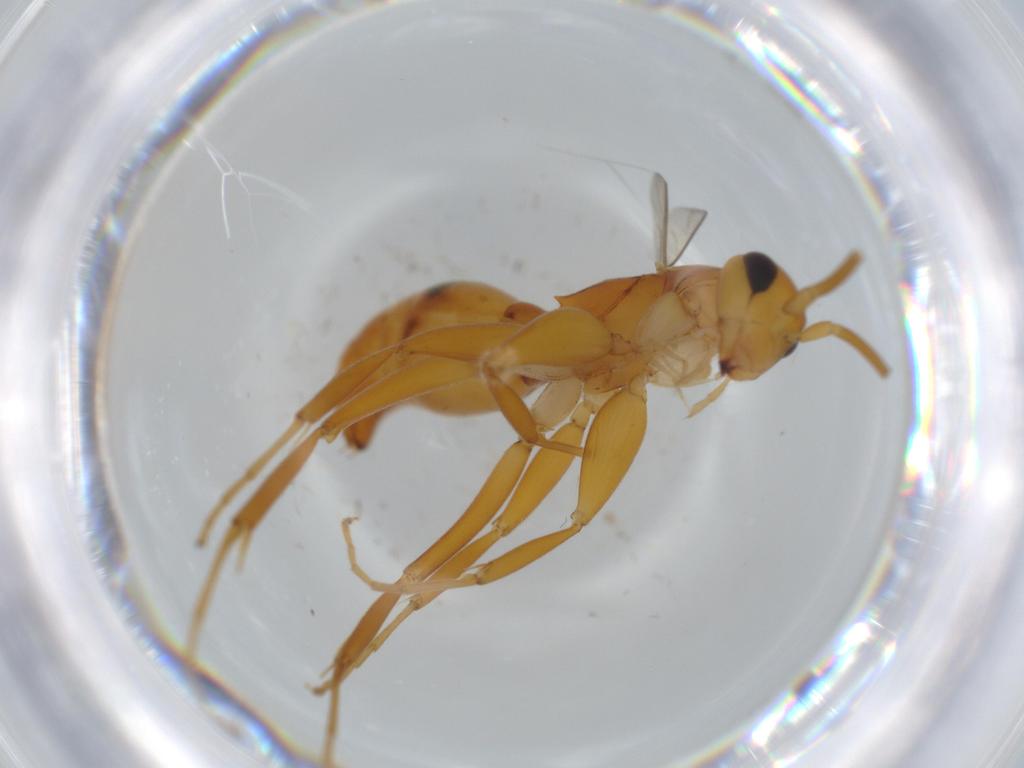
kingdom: Animalia
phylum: Arthropoda
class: Insecta
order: Hymenoptera
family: Rhopalosomatidae
